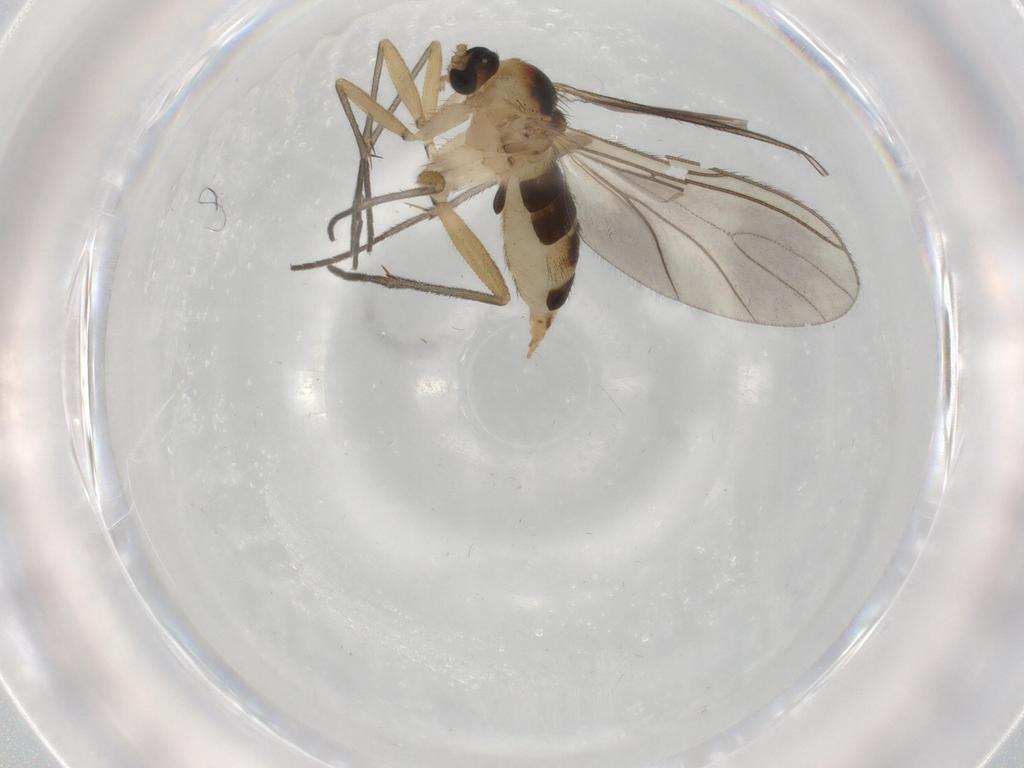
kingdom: Animalia
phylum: Arthropoda
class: Insecta
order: Diptera
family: Sciaridae
